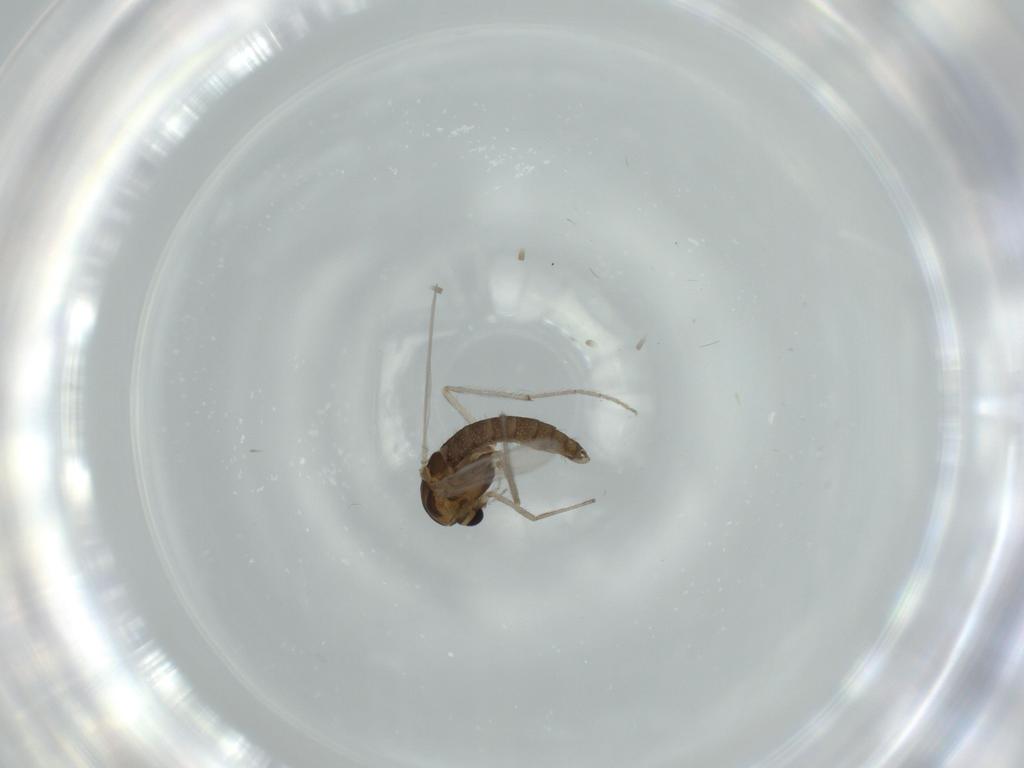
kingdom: Animalia
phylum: Arthropoda
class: Insecta
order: Diptera
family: Chironomidae
